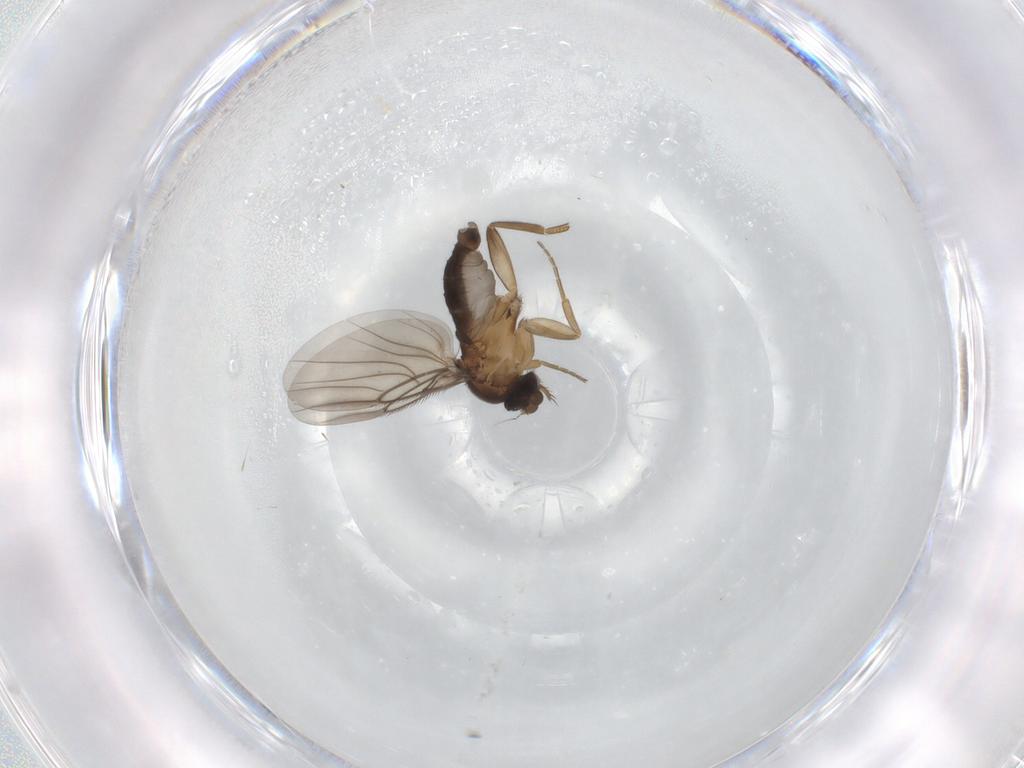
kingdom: Animalia
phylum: Arthropoda
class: Insecta
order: Diptera
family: Phoridae
